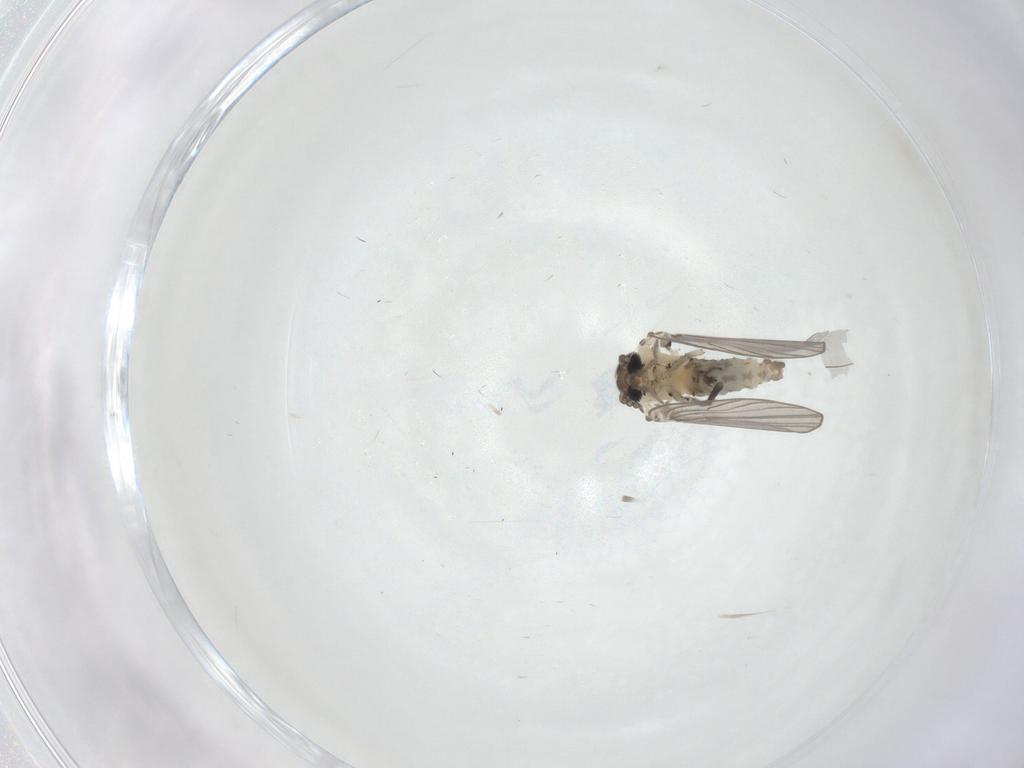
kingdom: Animalia
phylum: Arthropoda
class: Insecta
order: Diptera
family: Psychodidae
